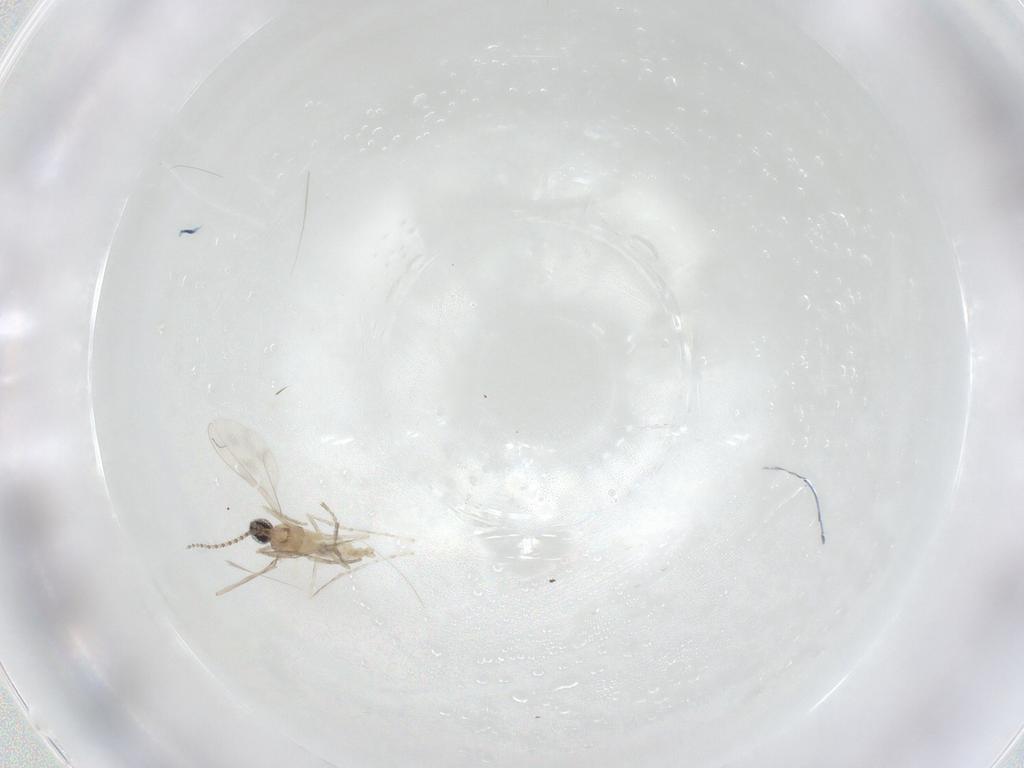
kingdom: Animalia
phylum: Arthropoda
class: Insecta
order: Diptera
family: Cecidomyiidae
